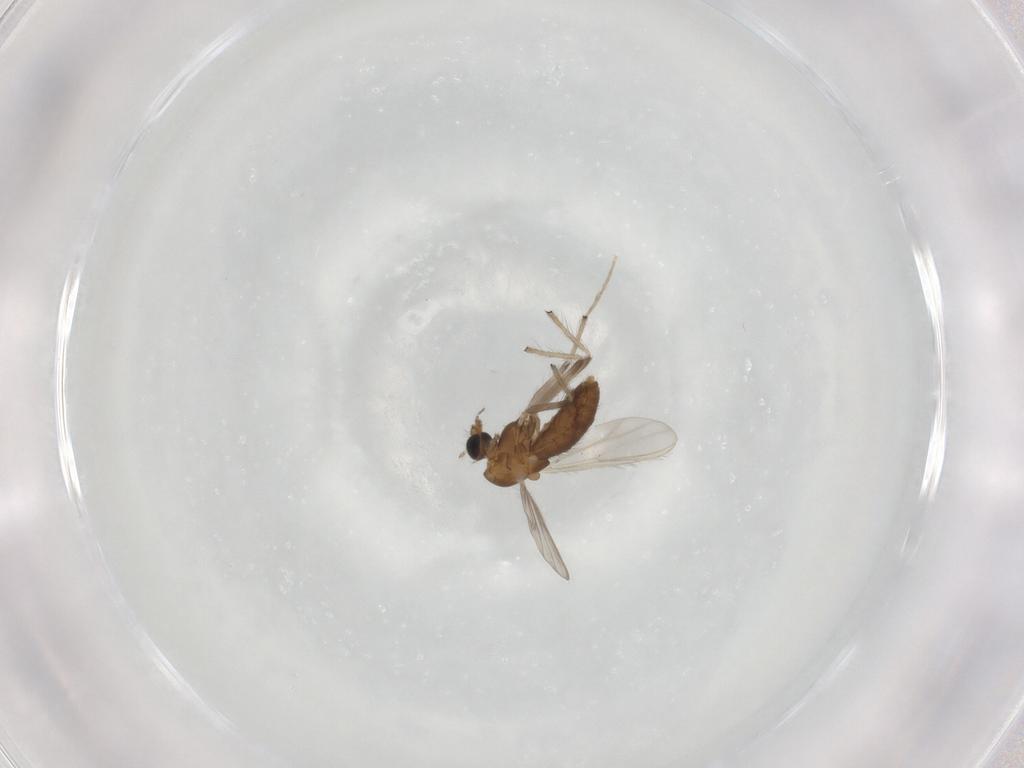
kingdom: Animalia
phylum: Arthropoda
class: Insecta
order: Diptera
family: Chironomidae
